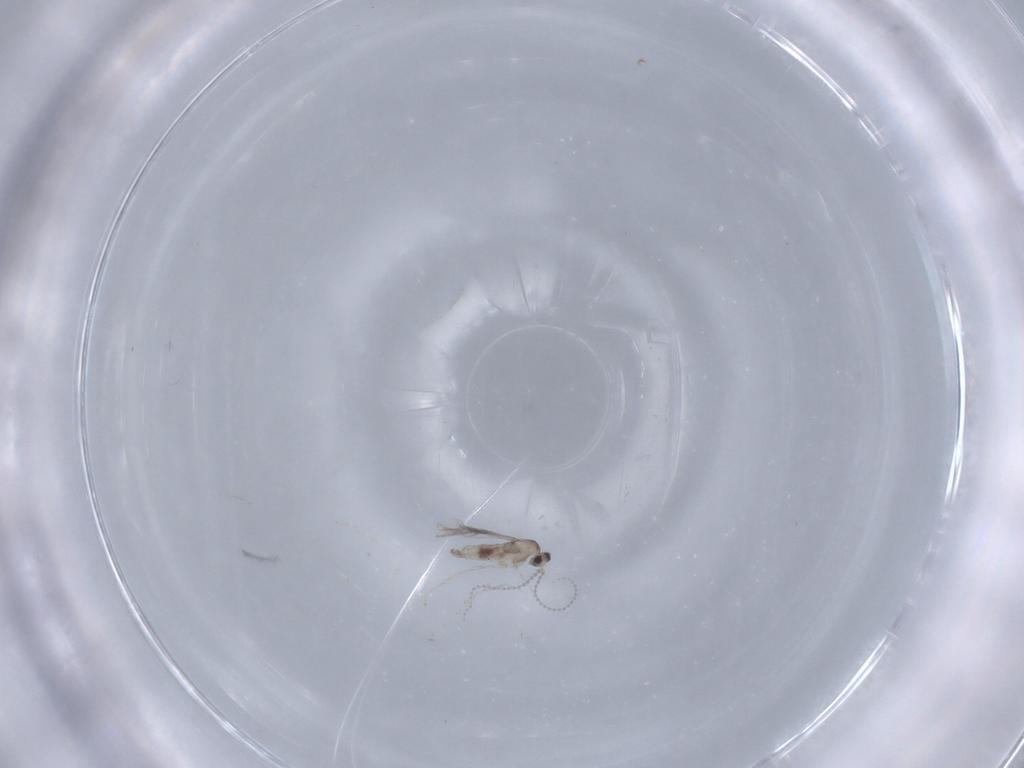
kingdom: Animalia
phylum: Arthropoda
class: Insecta
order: Diptera
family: Cecidomyiidae
